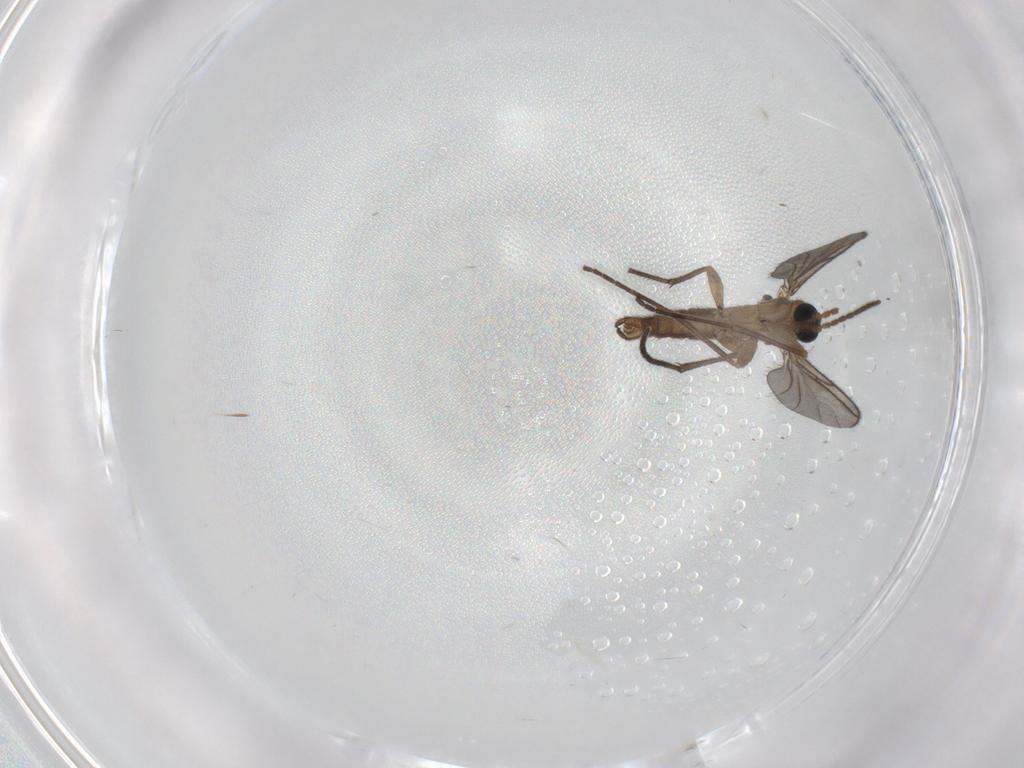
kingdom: Animalia
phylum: Arthropoda
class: Insecta
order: Diptera
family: Sciaridae
